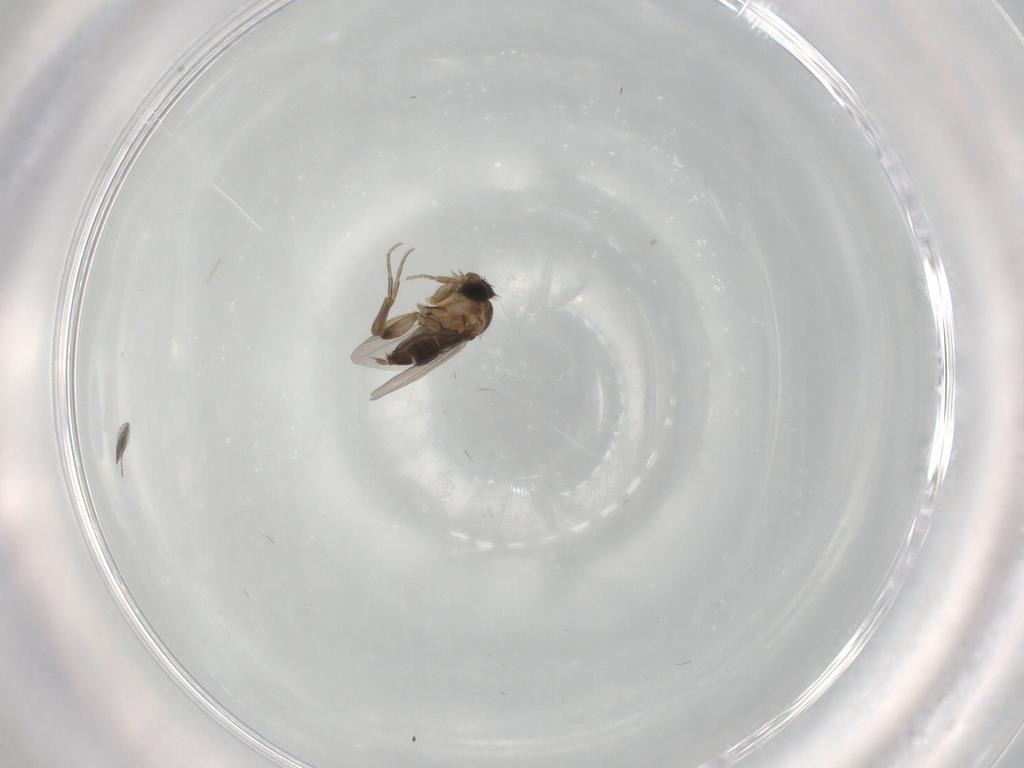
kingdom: Animalia
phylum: Arthropoda
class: Insecta
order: Diptera
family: Phoridae
